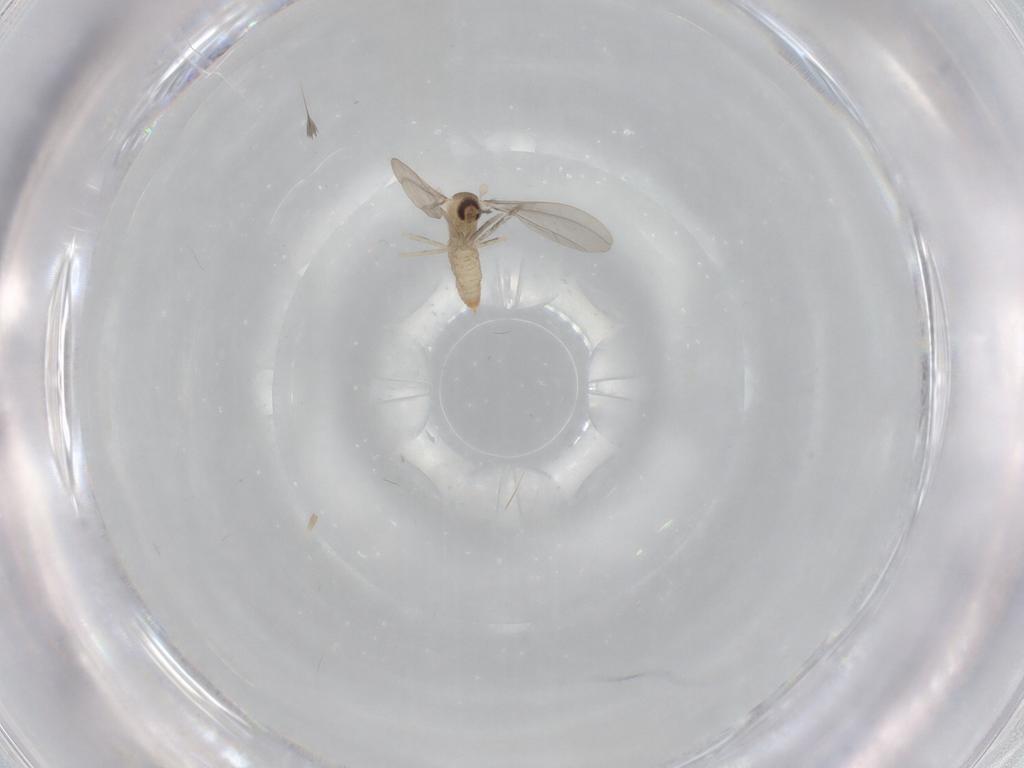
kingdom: Animalia
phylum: Arthropoda
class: Insecta
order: Diptera
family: Cecidomyiidae
